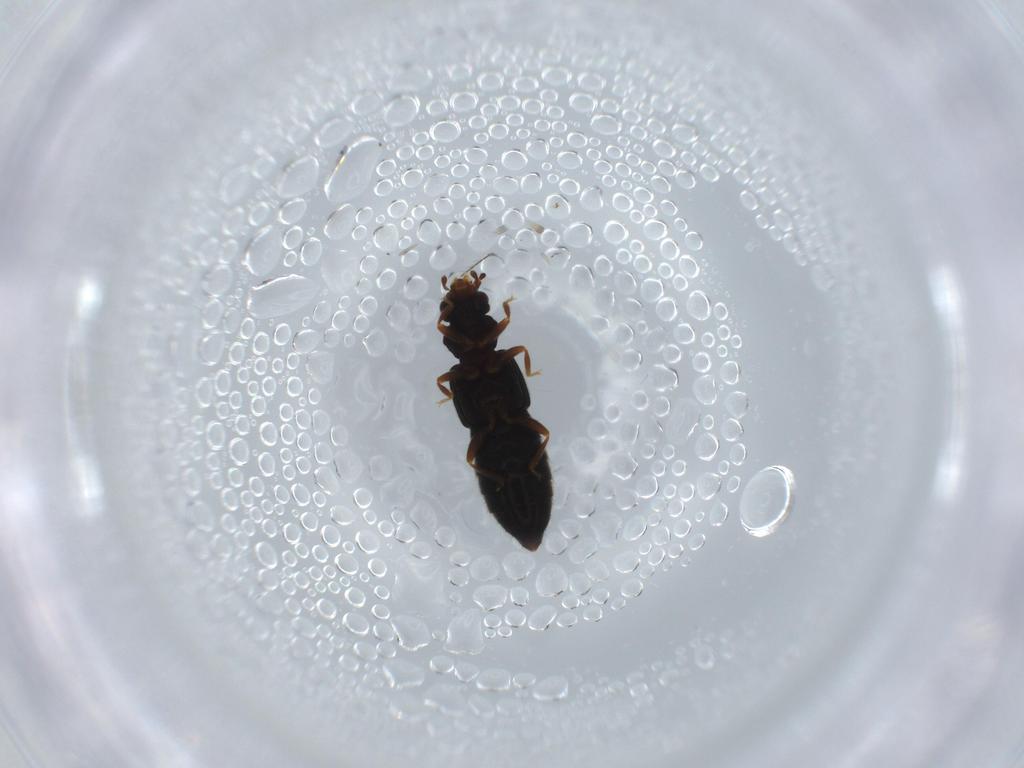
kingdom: Animalia
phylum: Arthropoda
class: Insecta
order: Coleoptera
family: Staphylinidae
